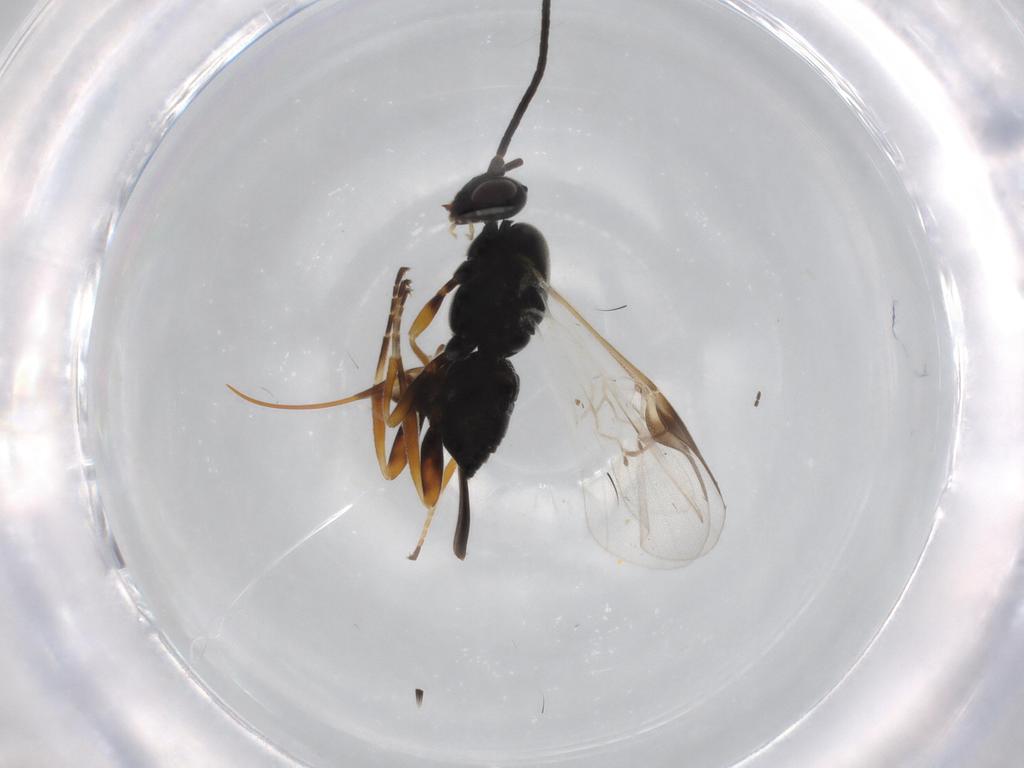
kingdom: Animalia
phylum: Arthropoda
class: Insecta
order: Hymenoptera
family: Braconidae
